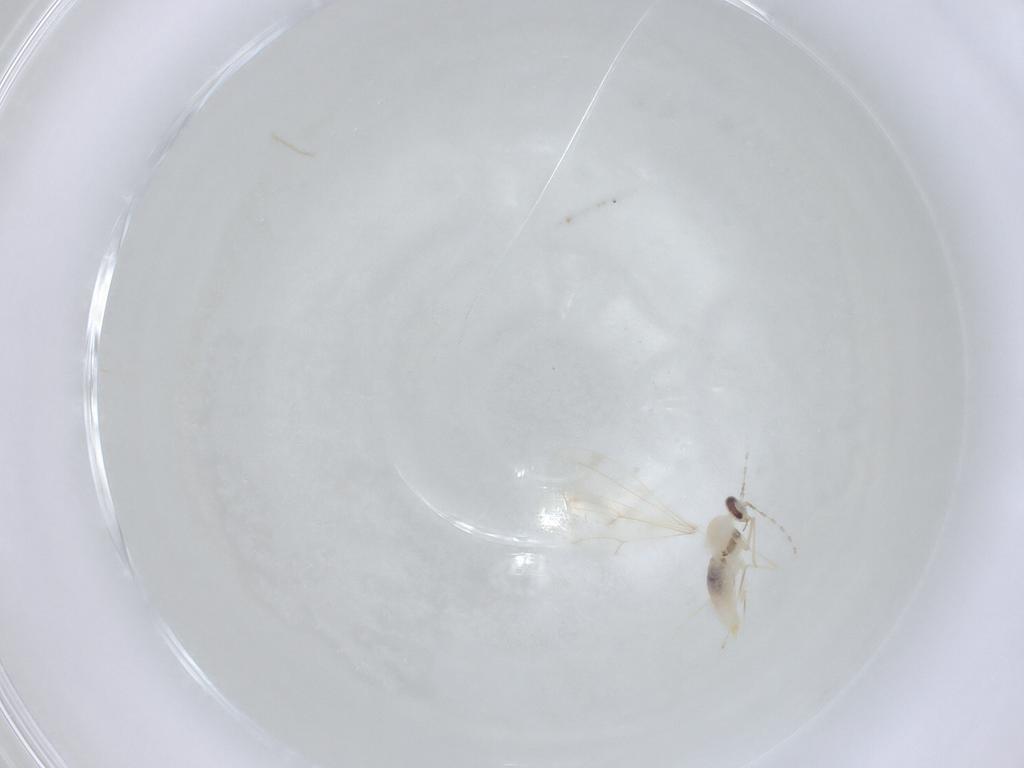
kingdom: Animalia
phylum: Arthropoda
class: Insecta
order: Diptera
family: Cecidomyiidae
